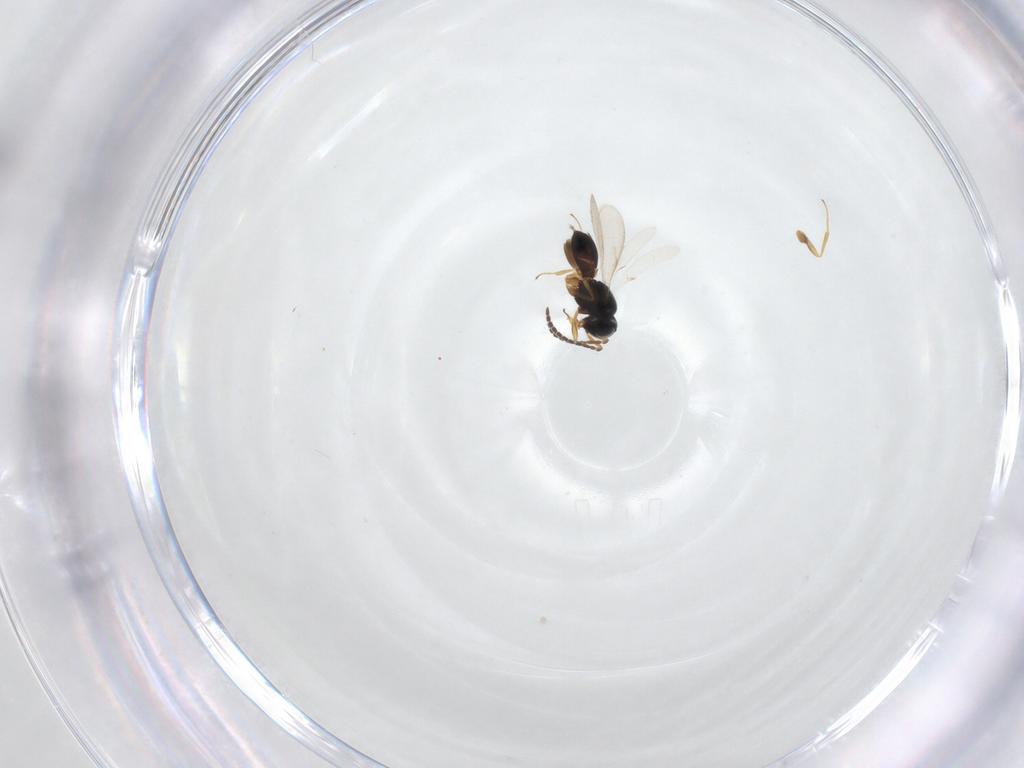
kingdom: Animalia
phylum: Arthropoda
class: Insecta
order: Hymenoptera
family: Scelionidae
